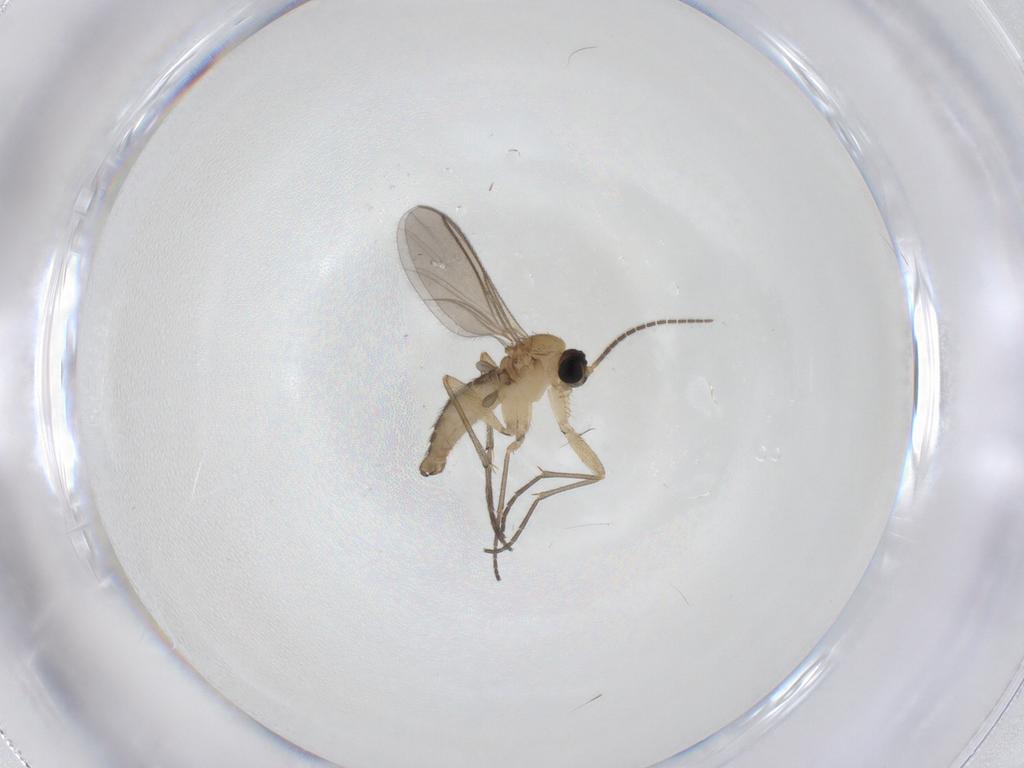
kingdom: Animalia
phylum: Arthropoda
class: Insecta
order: Diptera
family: Sciaridae
